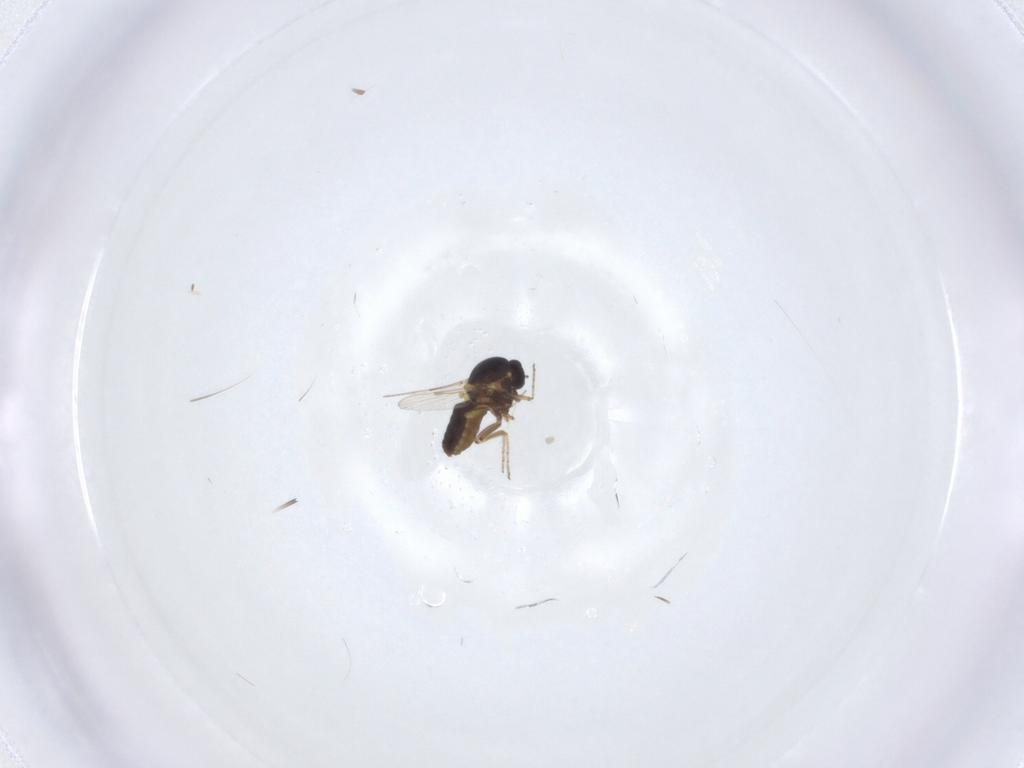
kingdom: Animalia
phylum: Arthropoda
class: Insecta
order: Diptera
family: Ceratopogonidae
